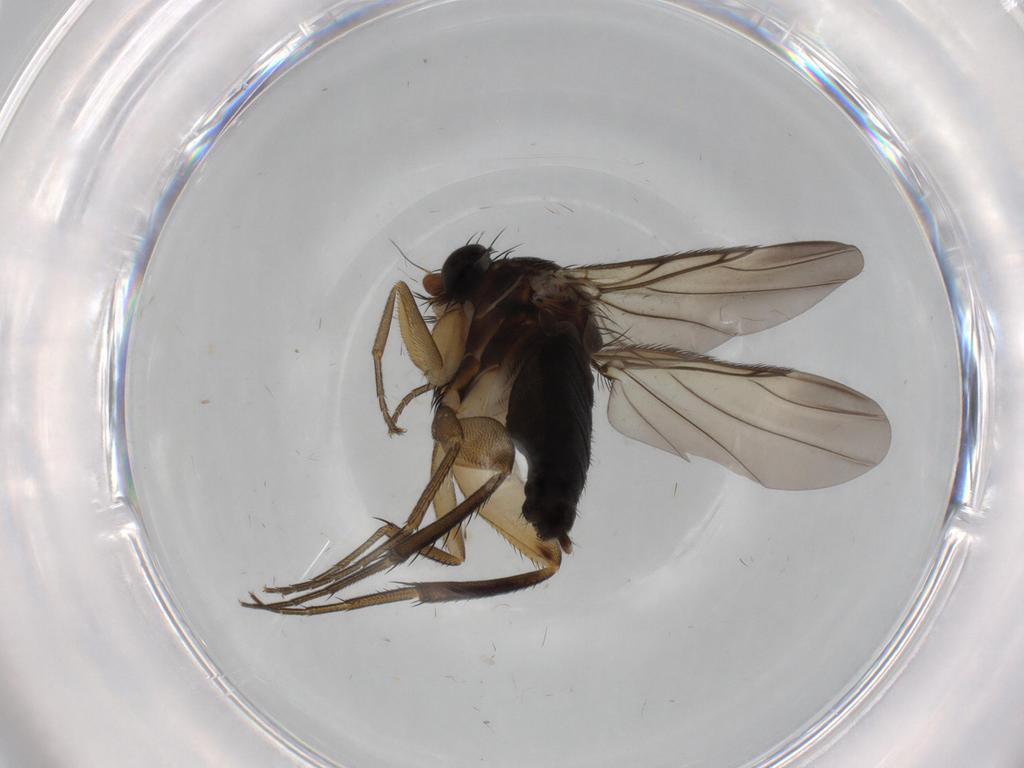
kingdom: Animalia
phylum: Arthropoda
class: Insecta
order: Diptera
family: Phoridae
